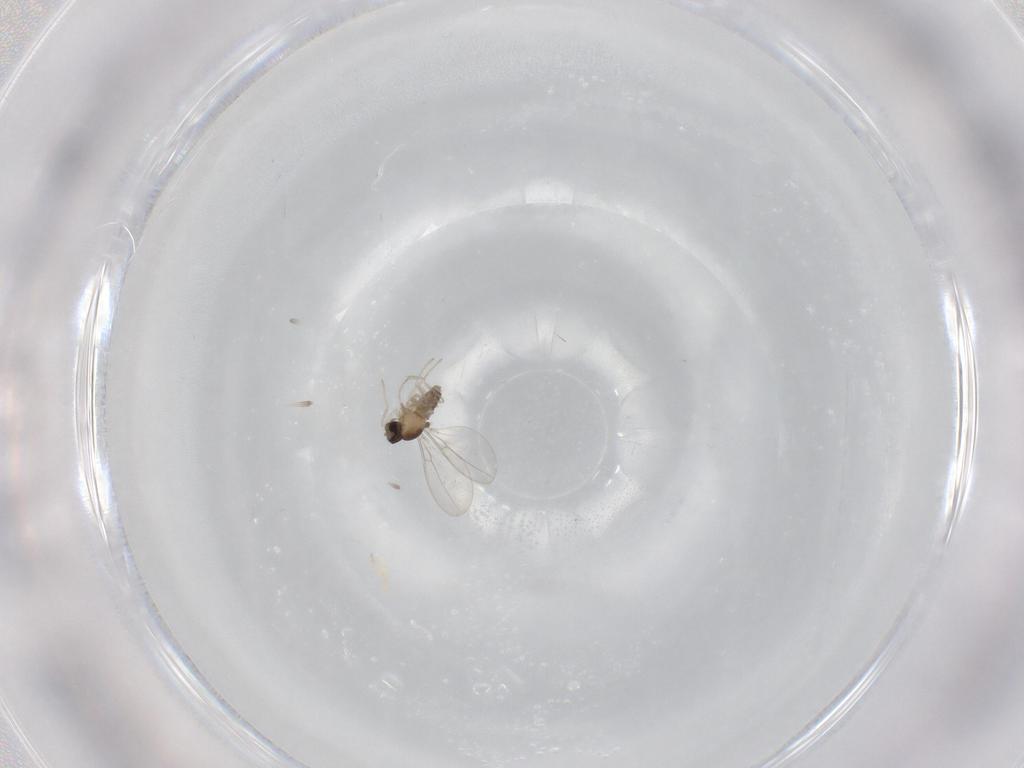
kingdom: Animalia
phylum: Arthropoda
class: Insecta
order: Diptera
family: Cecidomyiidae
